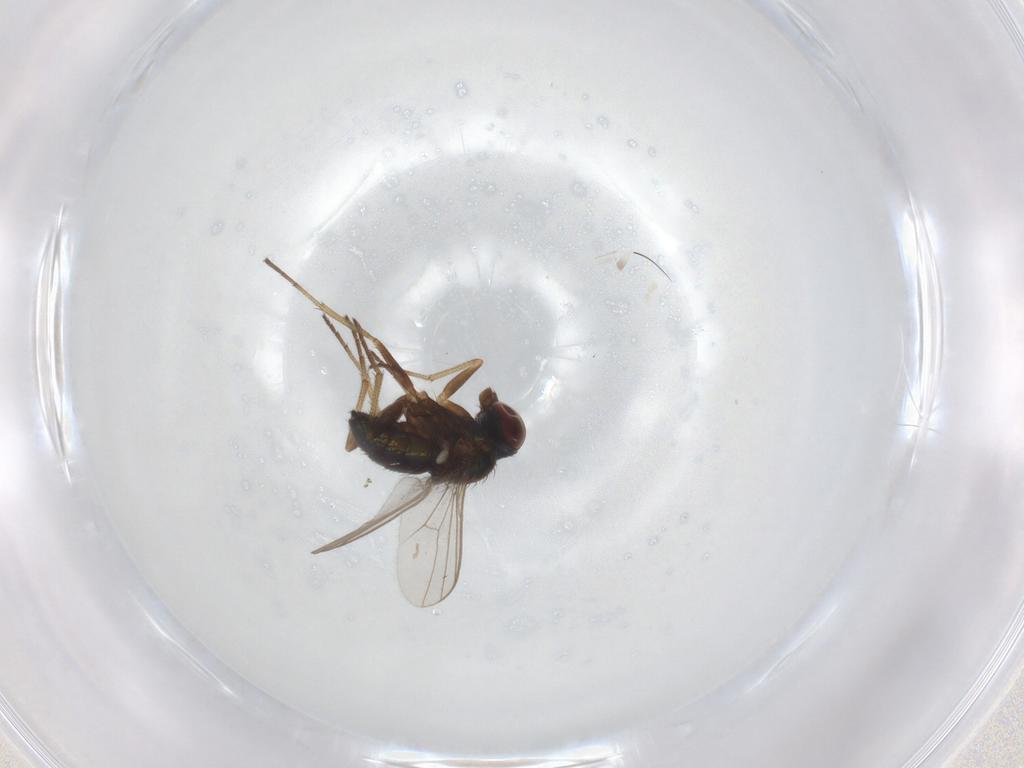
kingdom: Animalia
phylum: Arthropoda
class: Insecta
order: Diptera
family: Dolichopodidae
